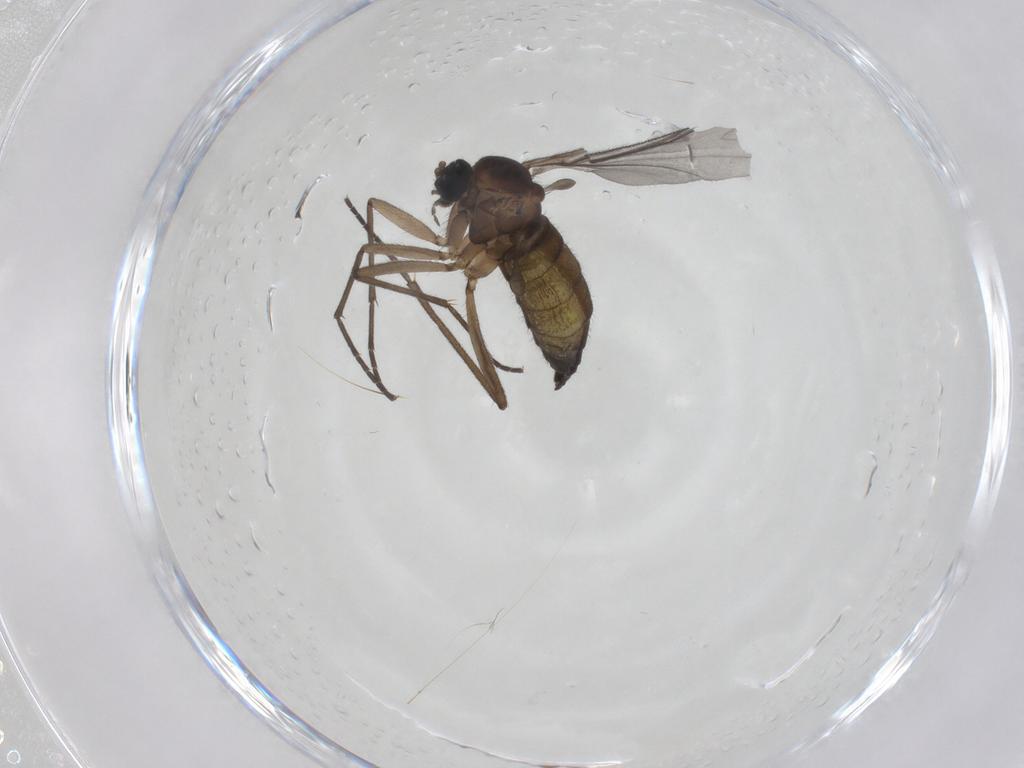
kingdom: Animalia
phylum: Arthropoda
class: Insecta
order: Diptera
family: Sciaridae
